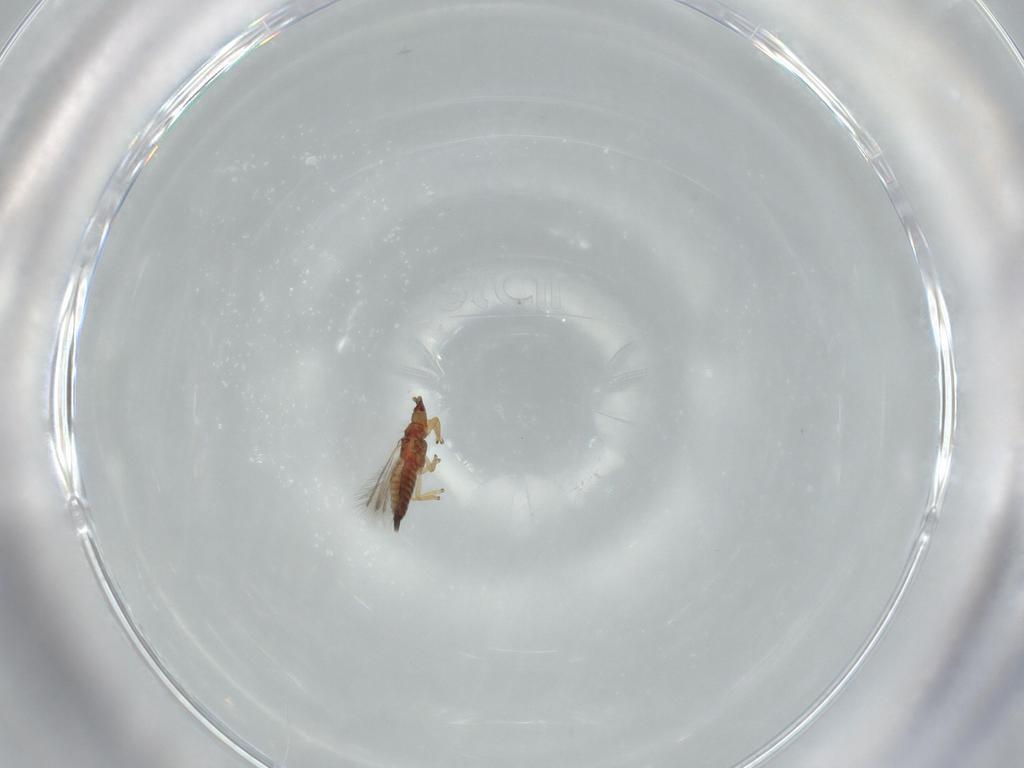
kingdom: Animalia
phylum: Arthropoda
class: Insecta
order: Thysanoptera
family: Phlaeothripidae
